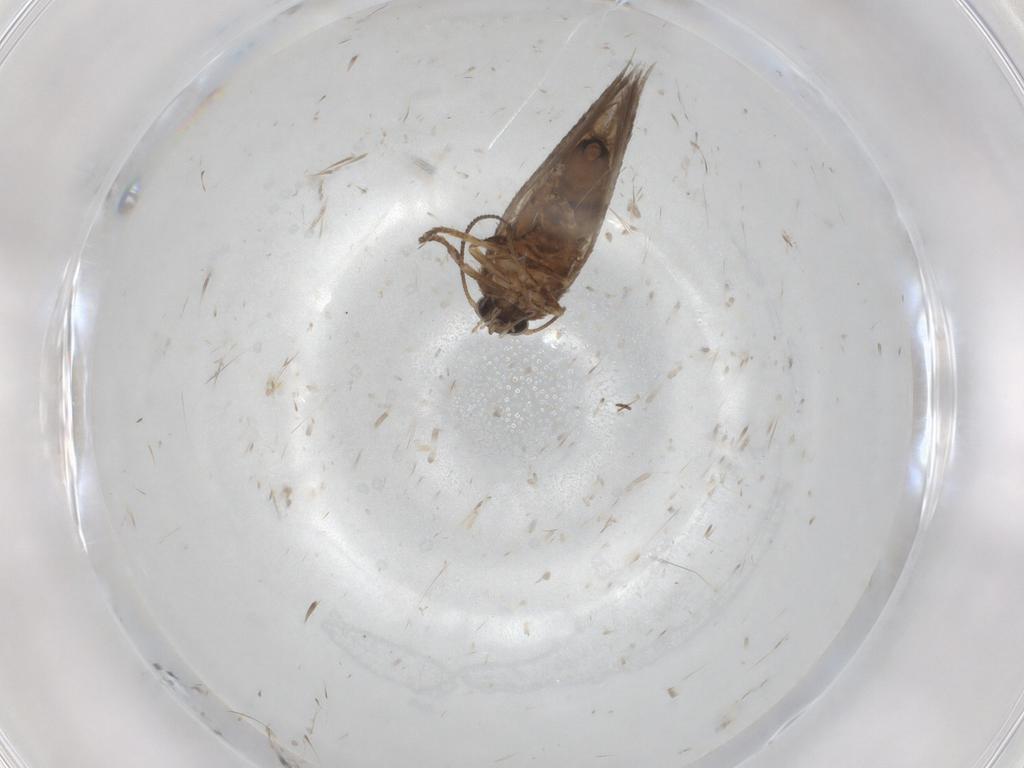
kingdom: Animalia
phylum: Arthropoda
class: Insecta
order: Lepidoptera
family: Nepticulidae
